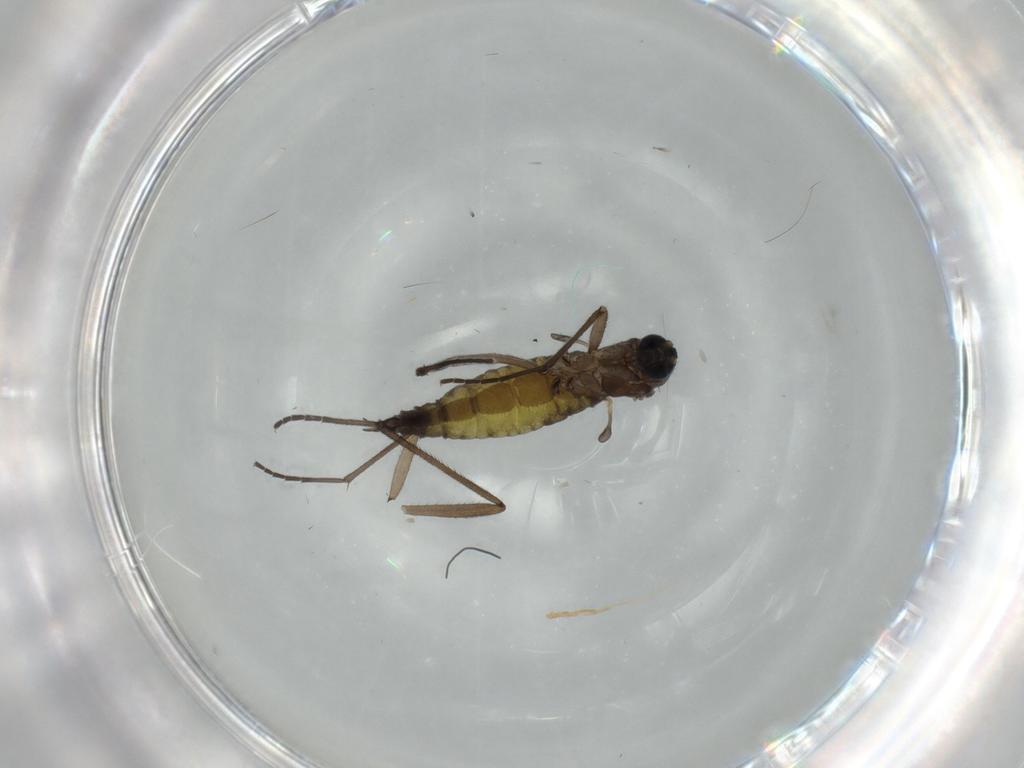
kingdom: Animalia
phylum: Arthropoda
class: Insecta
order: Diptera
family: Sciaridae
